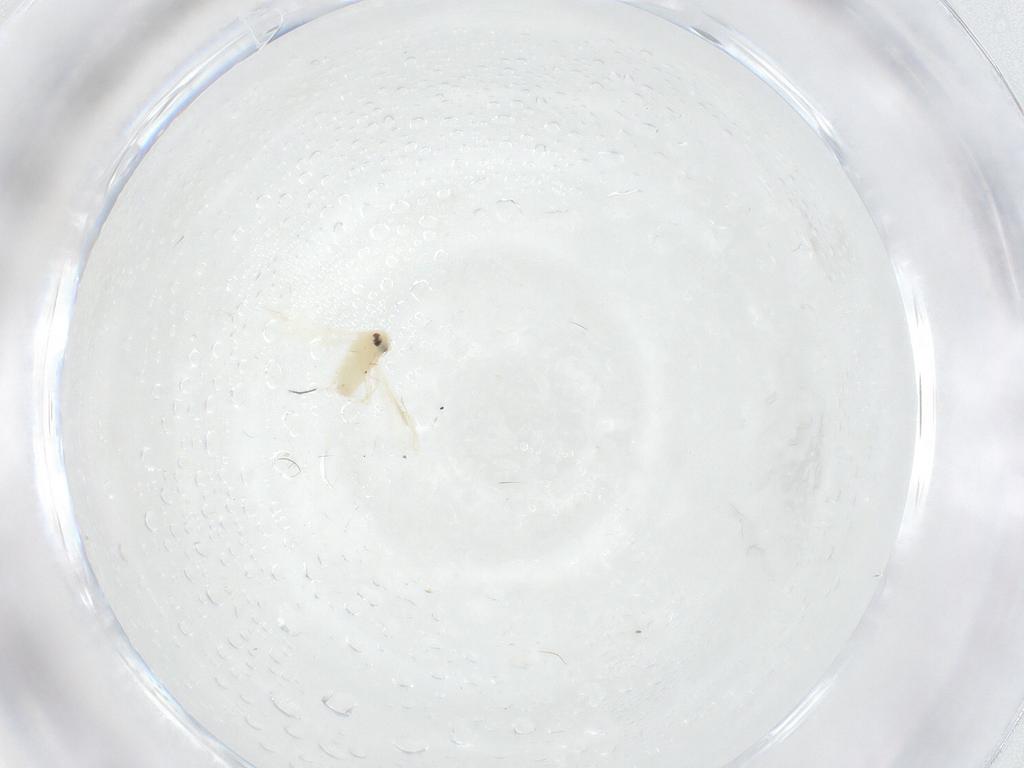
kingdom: Animalia
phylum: Arthropoda
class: Insecta
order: Hemiptera
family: Aleyrodidae
